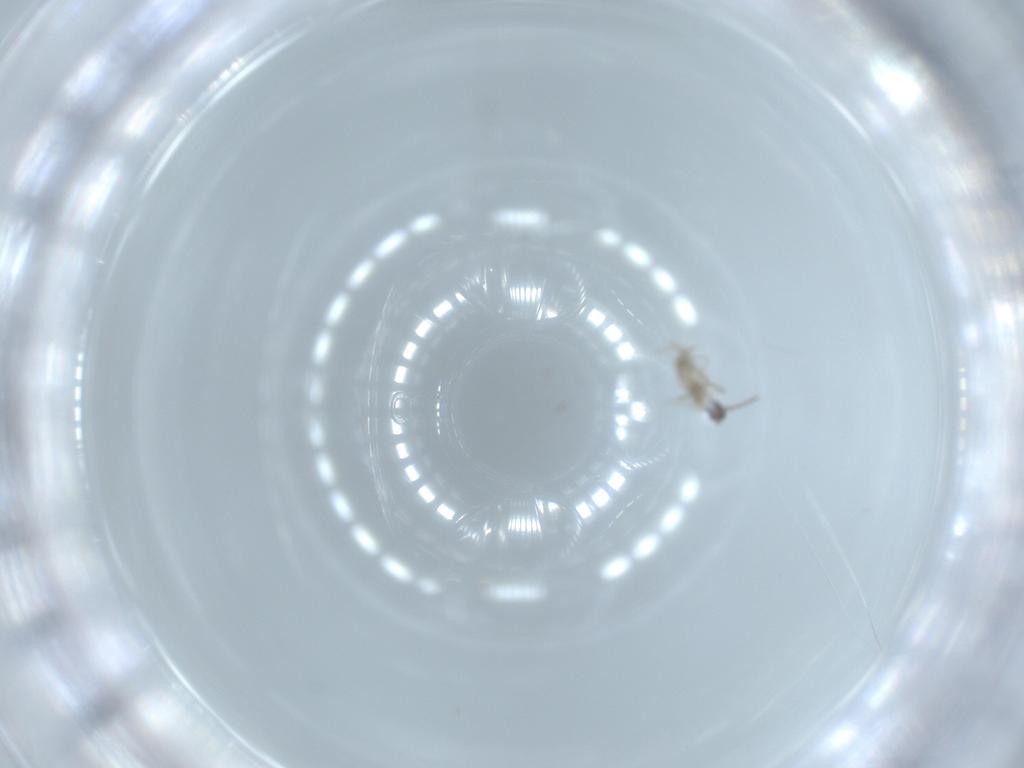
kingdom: Animalia
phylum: Arthropoda
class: Insecta
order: Diptera
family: Cecidomyiidae
